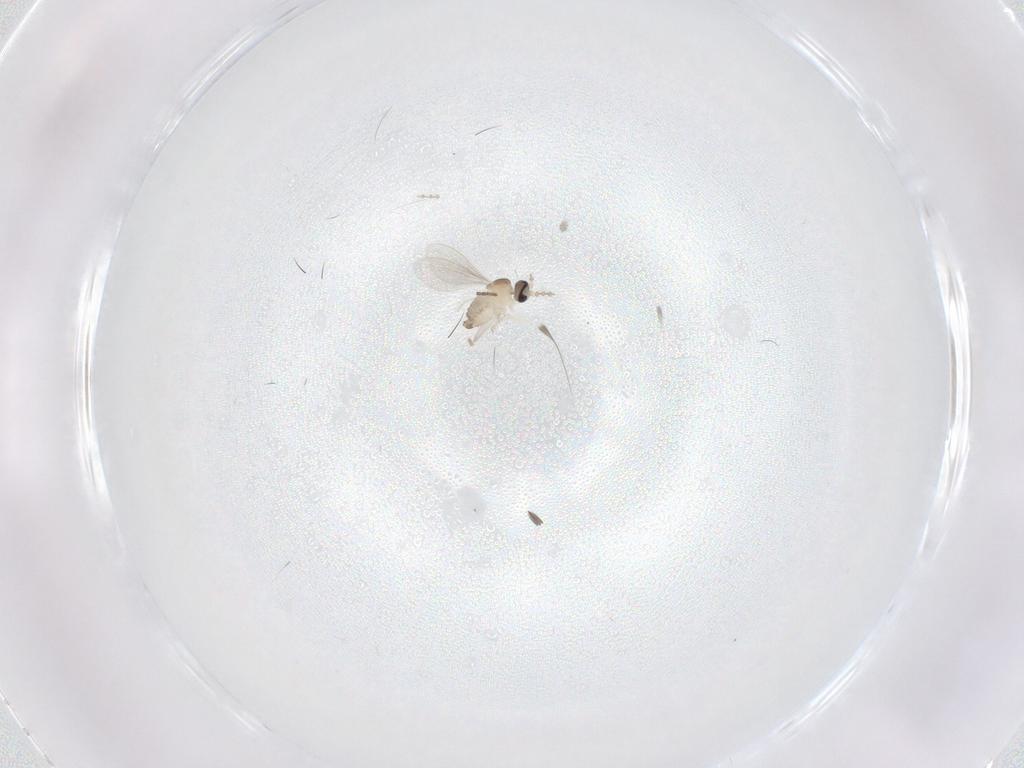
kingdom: Animalia
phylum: Arthropoda
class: Insecta
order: Diptera
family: Cecidomyiidae
